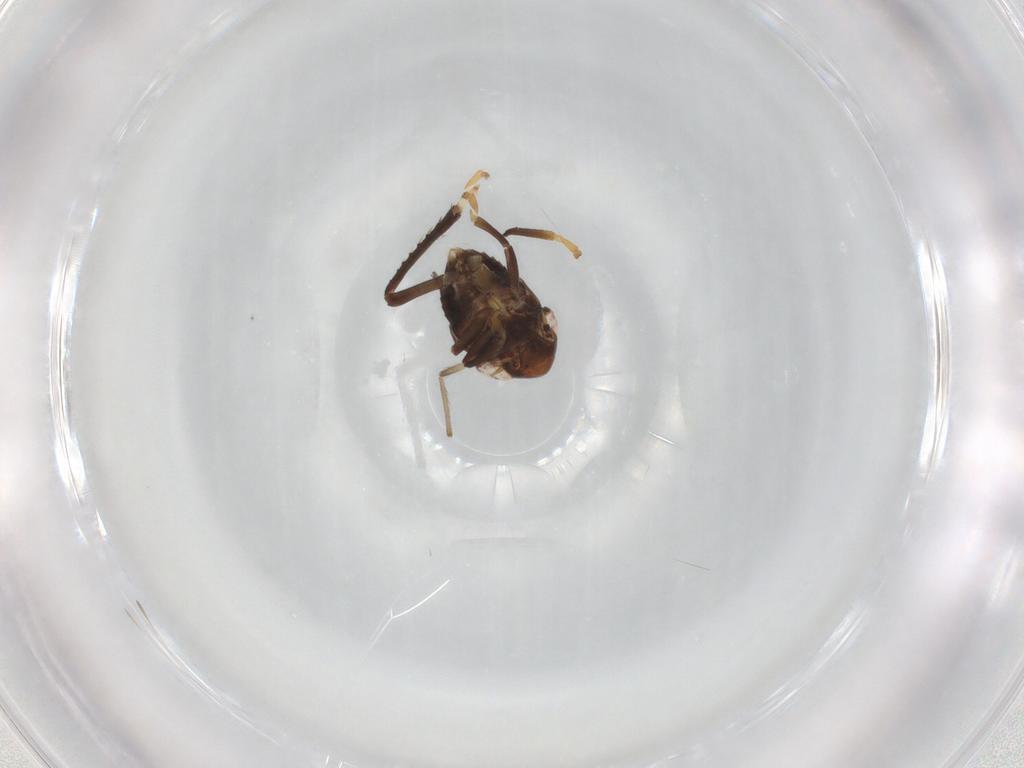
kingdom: Animalia
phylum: Arthropoda
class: Insecta
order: Hemiptera
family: Cicadellidae
